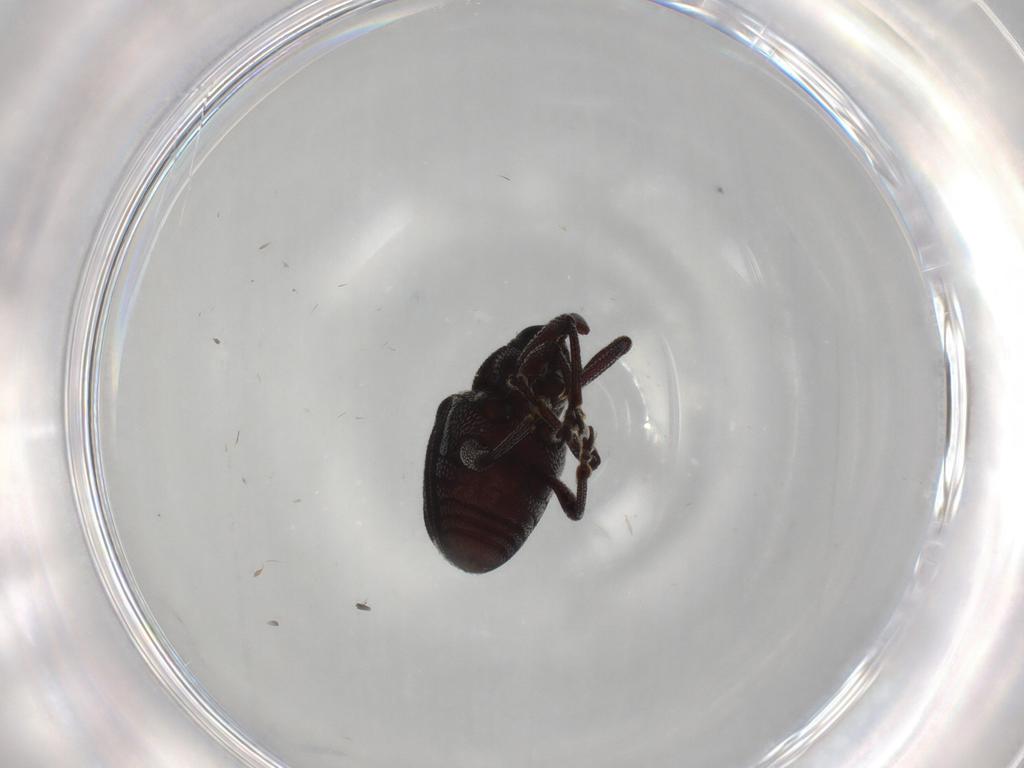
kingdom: Animalia
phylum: Arthropoda
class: Insecta
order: Coleoptera
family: Curculionidae
